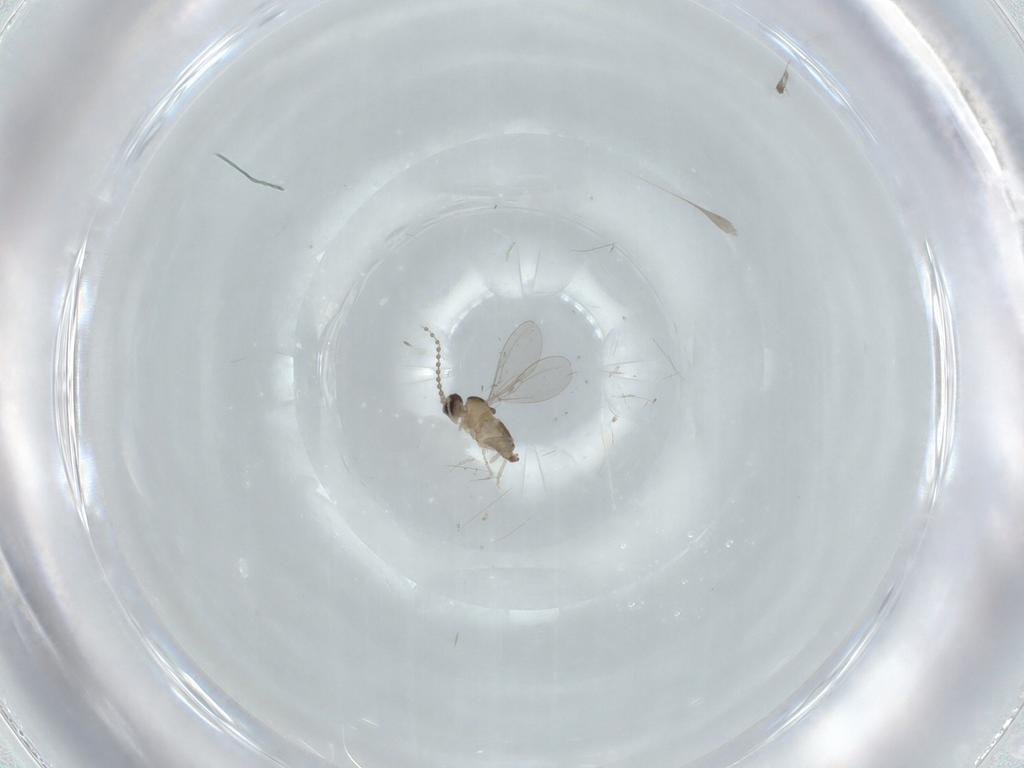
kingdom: Animalia
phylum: Arthropoda
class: Insecta
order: Diptera
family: Cecidomyiidae
